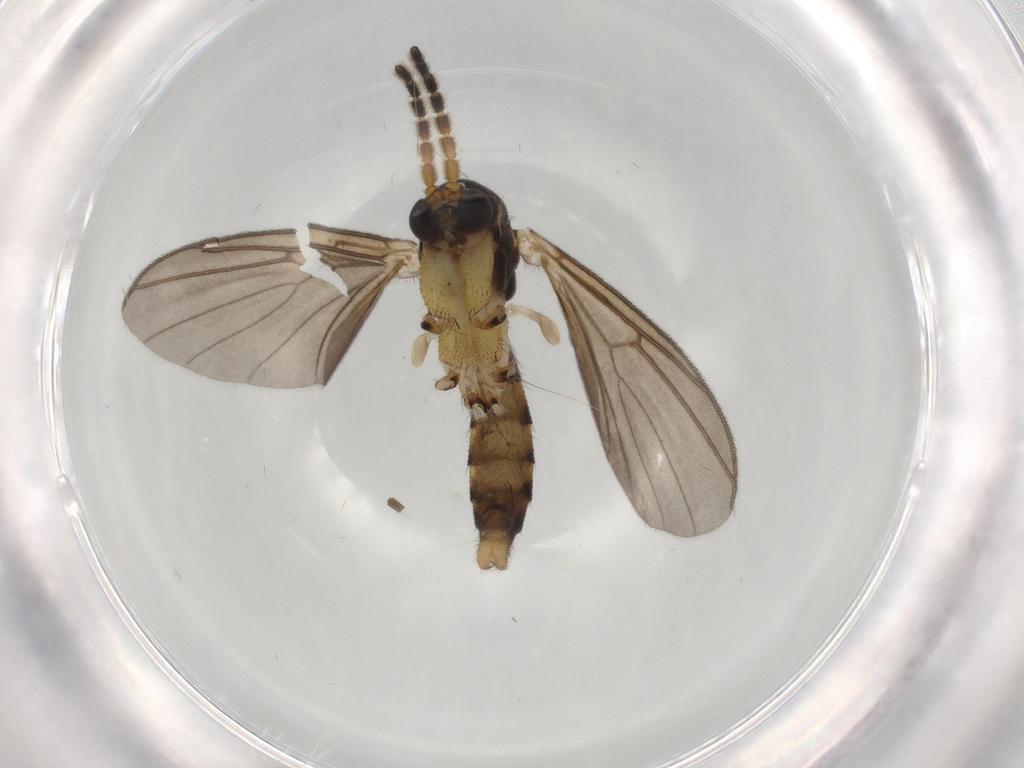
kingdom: Animalia
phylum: Arthropoda
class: Insecta
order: Diptera
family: Mycetophilidae
